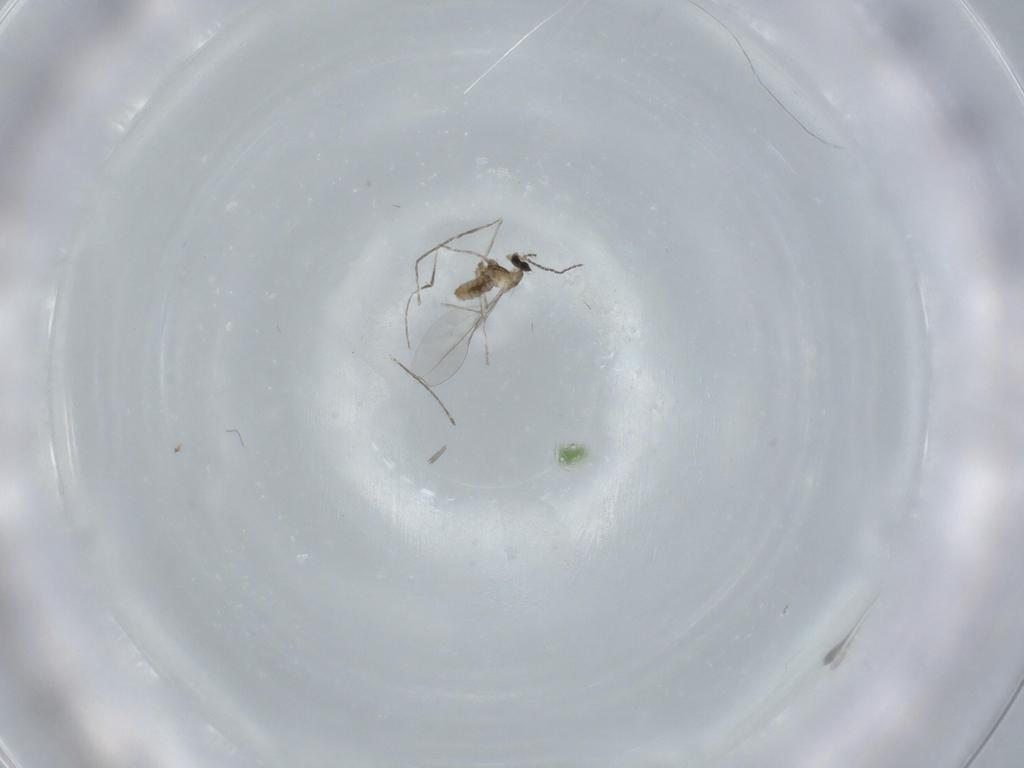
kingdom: Animalia
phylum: Arthropoda
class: Insecta
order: Diptera
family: Cecidomyiidae
